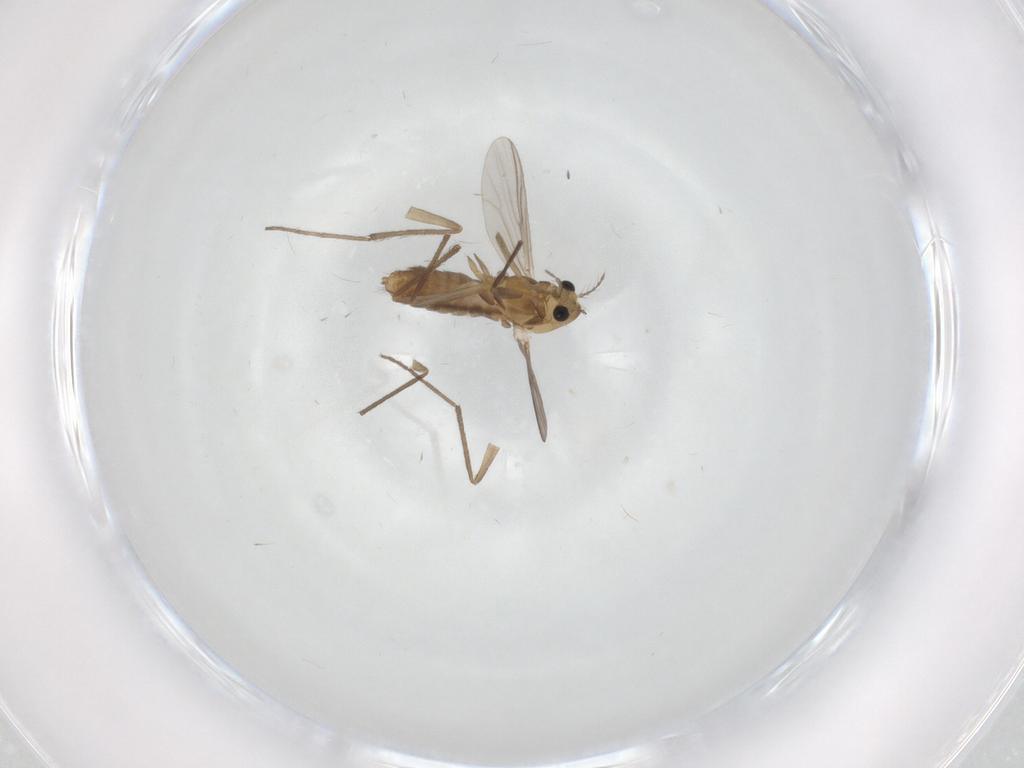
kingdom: Animalia
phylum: Arthropoda
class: Insecta
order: Diptera
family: Chironomidae
